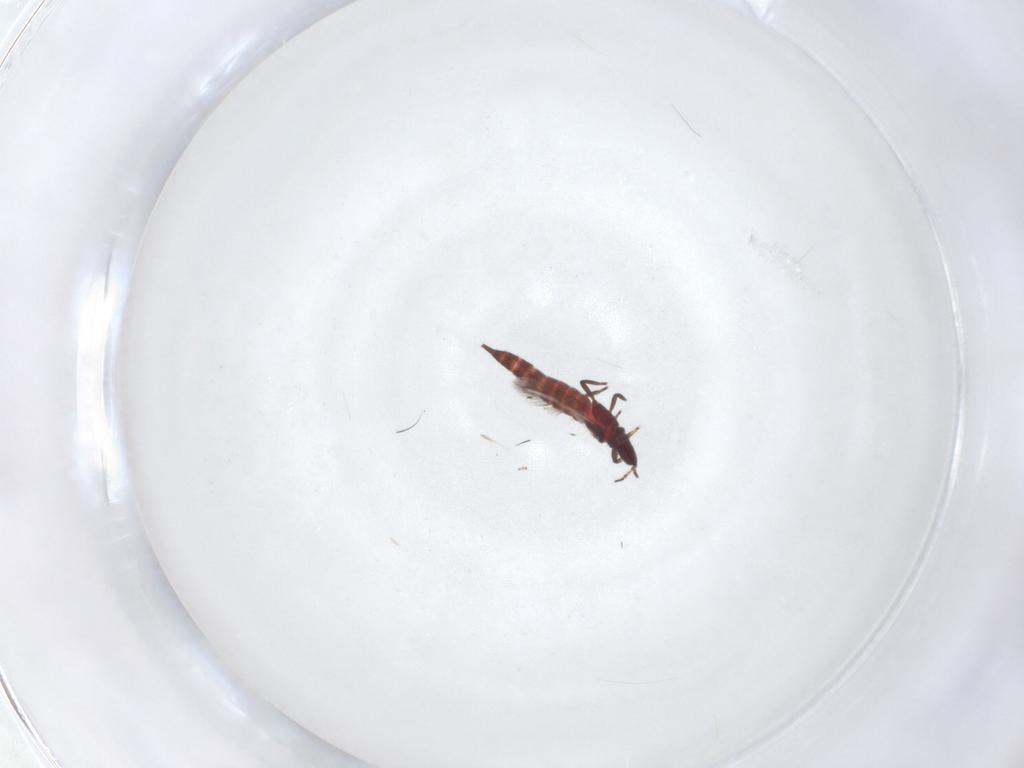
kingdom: Animalia
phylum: Arthropoda
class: Insecta
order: Thysanoptera
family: Phlaeothripidae
